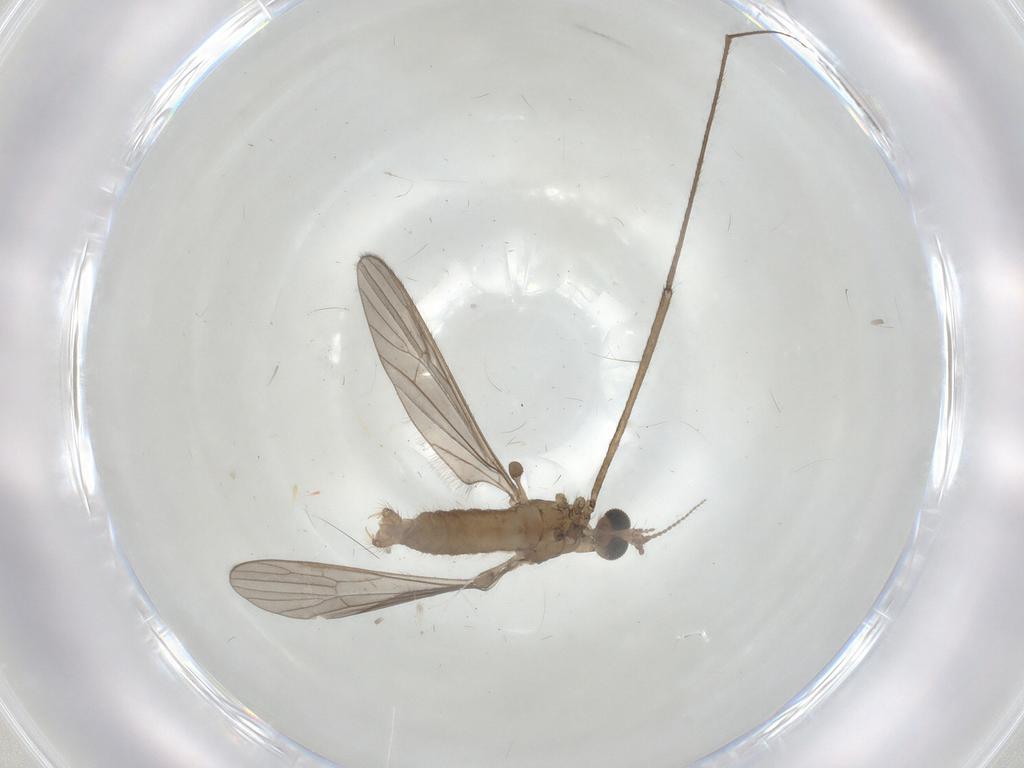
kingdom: Animalia
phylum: Arthropoda
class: Insecta
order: Diptera
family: Limoniidae
